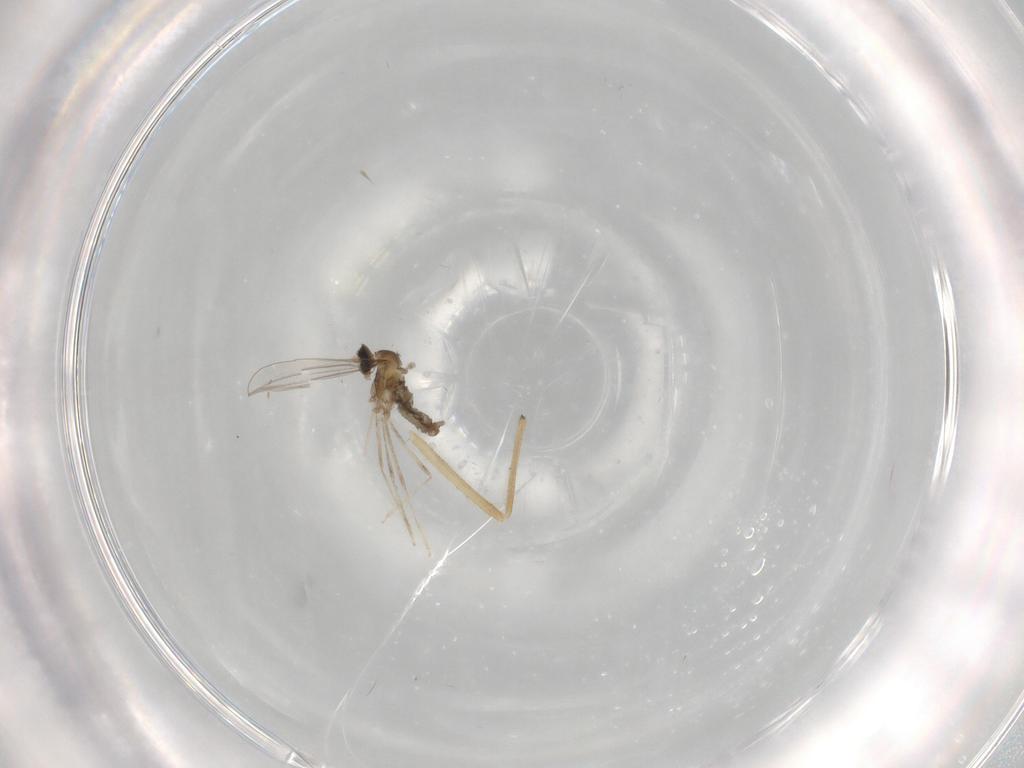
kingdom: Animalia
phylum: Arthropoda
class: Insecta
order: Diptera
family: Cecidomyiidae
